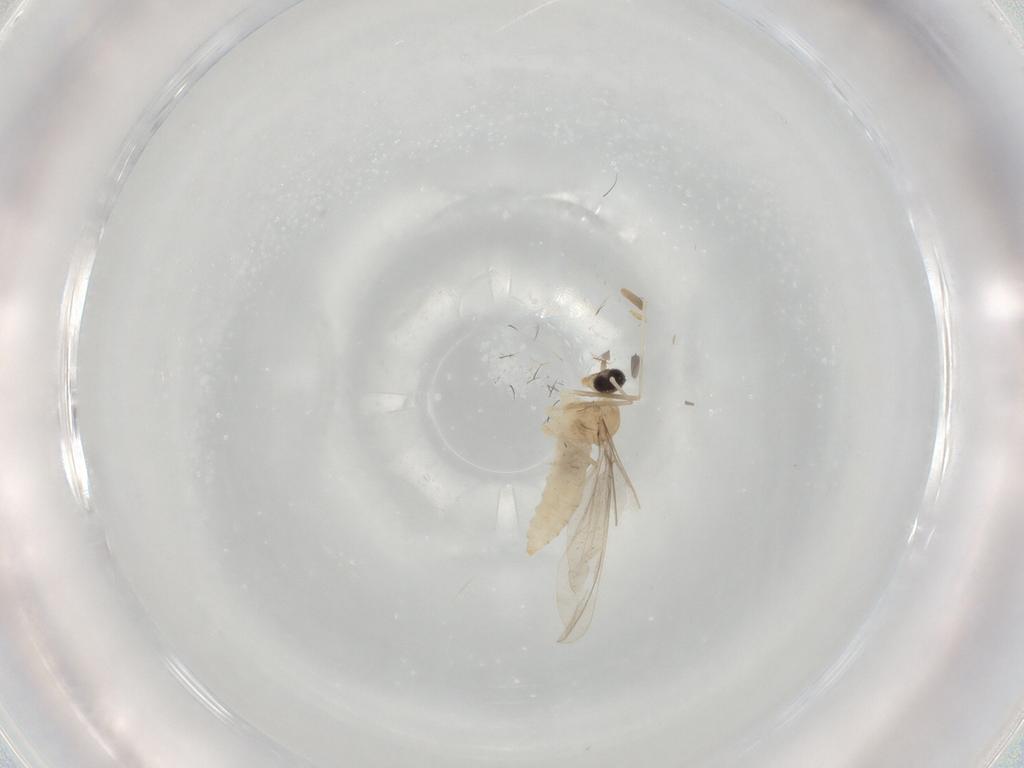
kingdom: Animalia
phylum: Arthropoda
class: Insecta
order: Diptera
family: Cecidomyiidae
